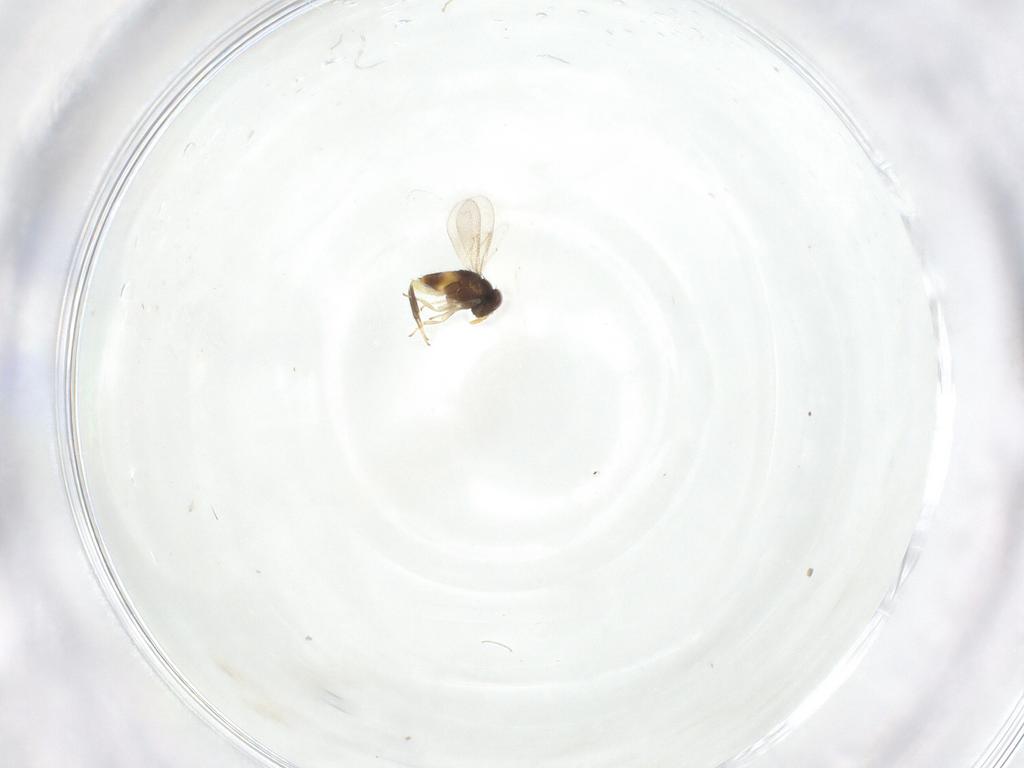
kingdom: Animalia
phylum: Arthropoda
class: Insecta
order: Hymenoptera
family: Aphelinidae
